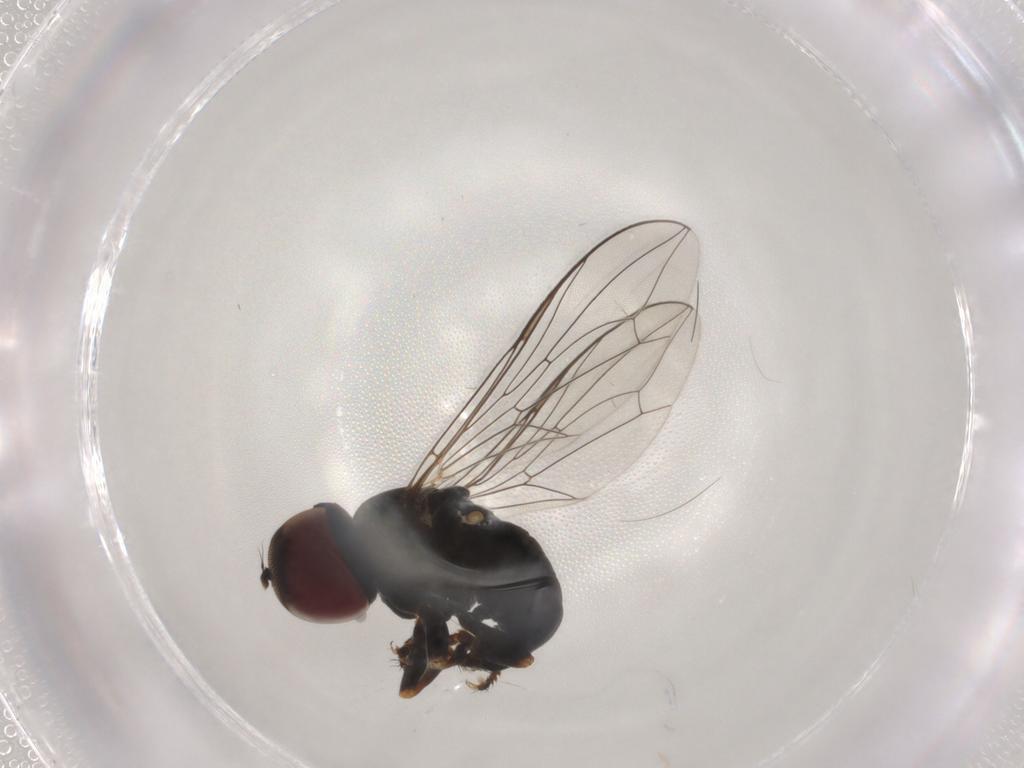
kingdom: Animalia
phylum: Arthropoda
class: Insecta
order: Diptera
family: Pipunculidae
